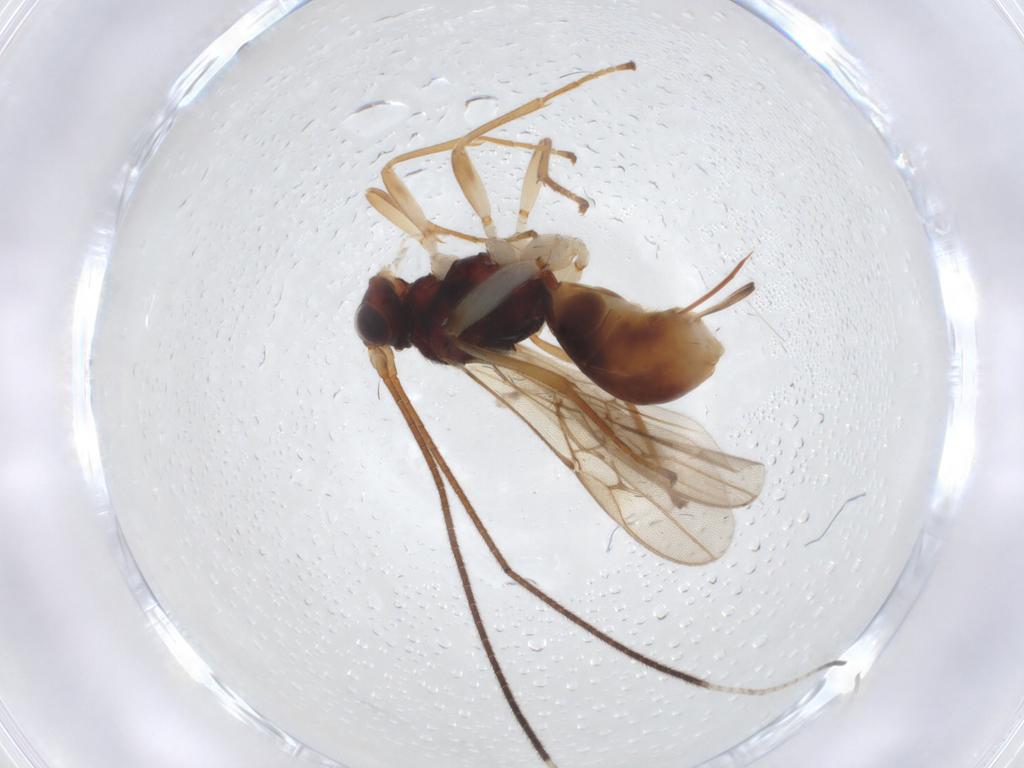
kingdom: Animalia
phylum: Arthropoda
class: Insecta
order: Hymenoptera
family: Braconidae
